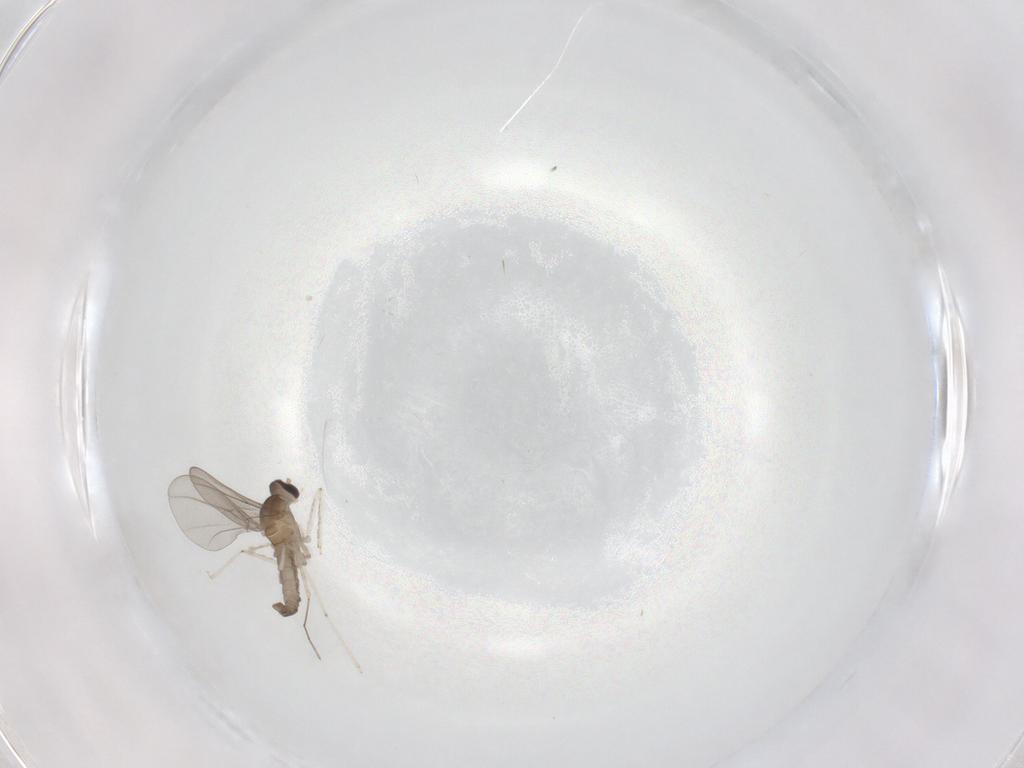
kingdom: Animalia
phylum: Arthropoda
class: Insecta
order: Diptera
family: Cecidomyiidae
